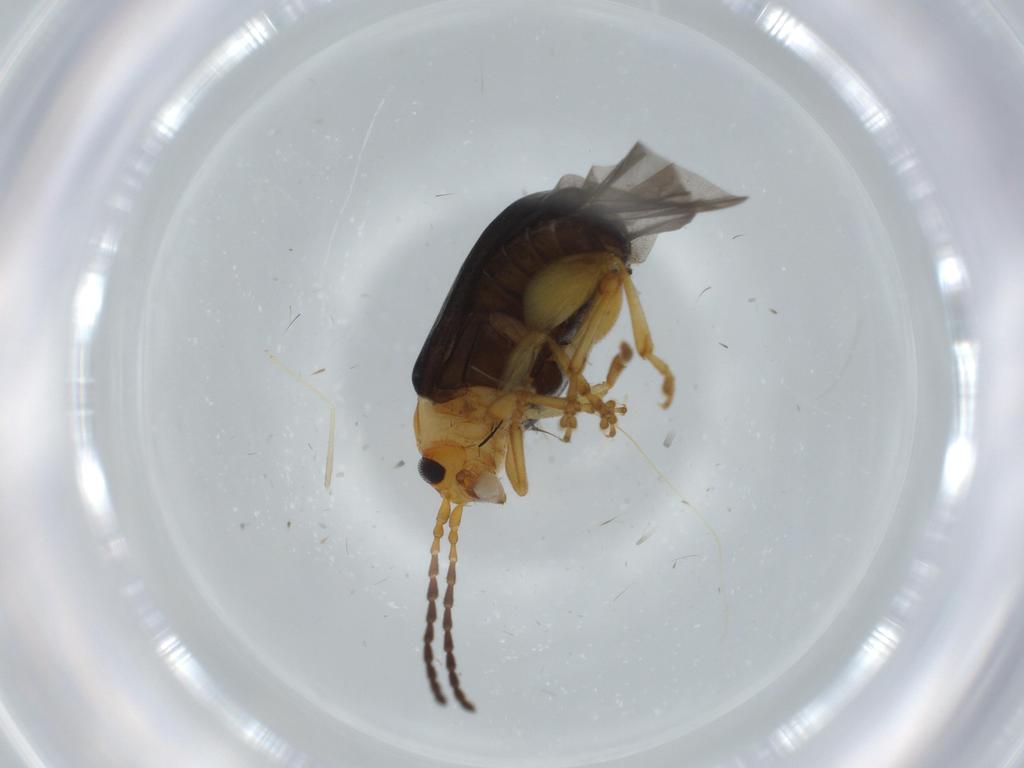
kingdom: Animalia
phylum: Arthropoda
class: Insecta
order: Coleoptera
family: Chrysomelidae
